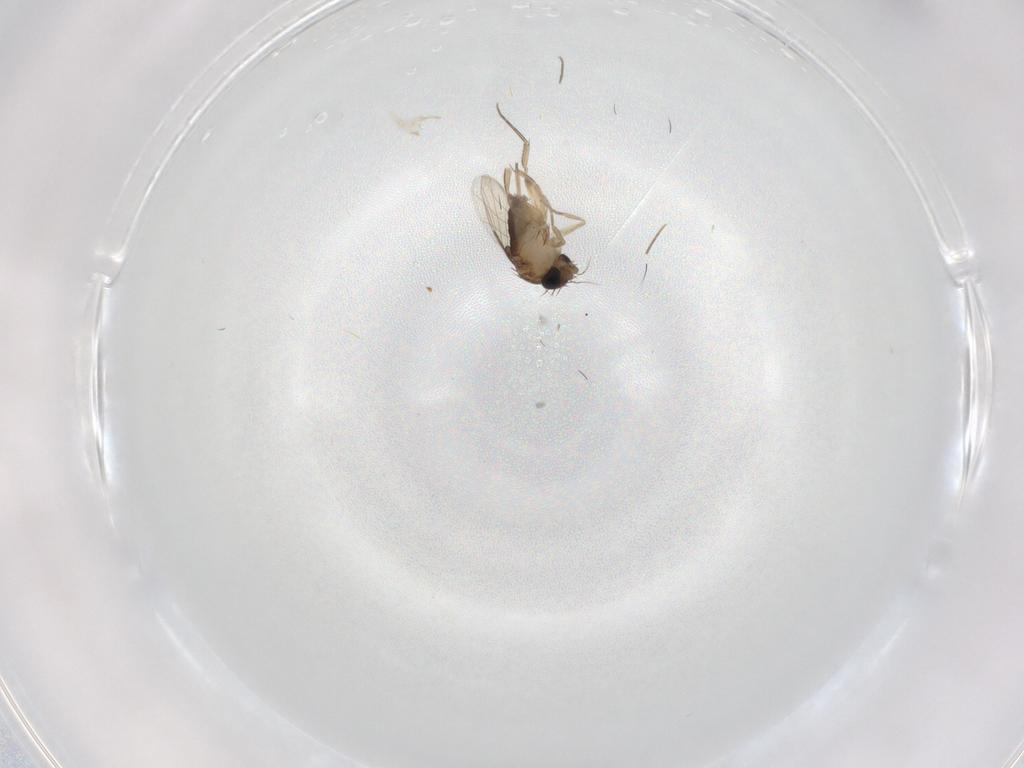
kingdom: Animalia
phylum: Arthropoda
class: Insecta
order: Diptera
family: Phoridae
